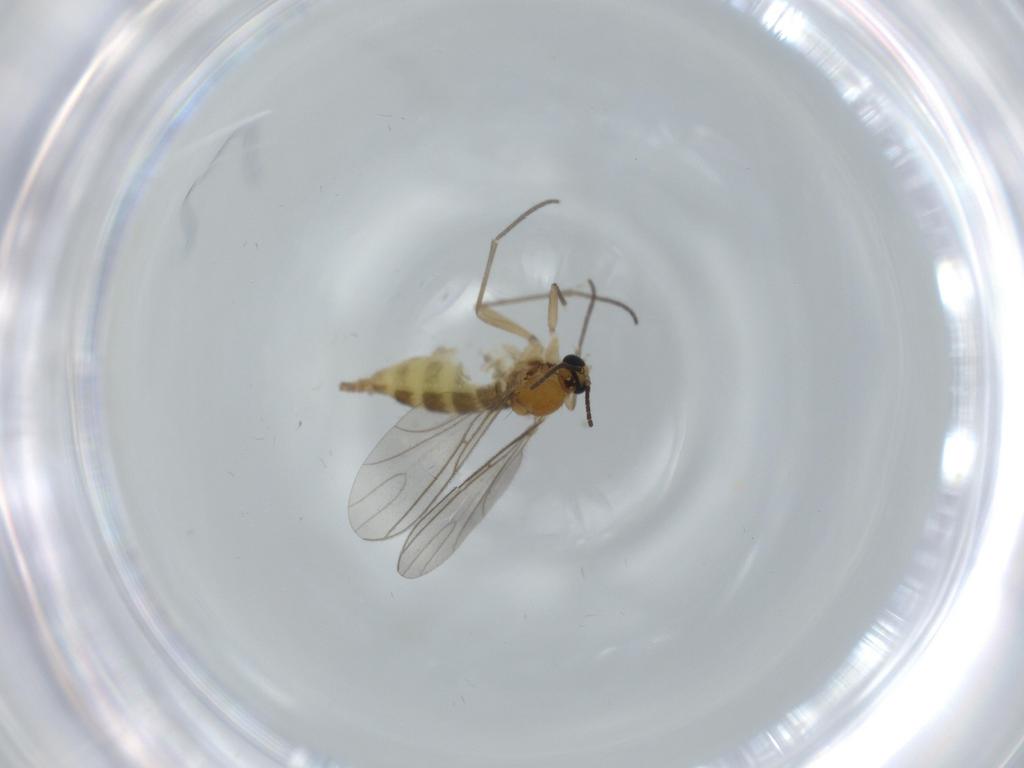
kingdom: Animalia
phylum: Arthropoda
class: Insecta
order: Diptera
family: Sciaridae
